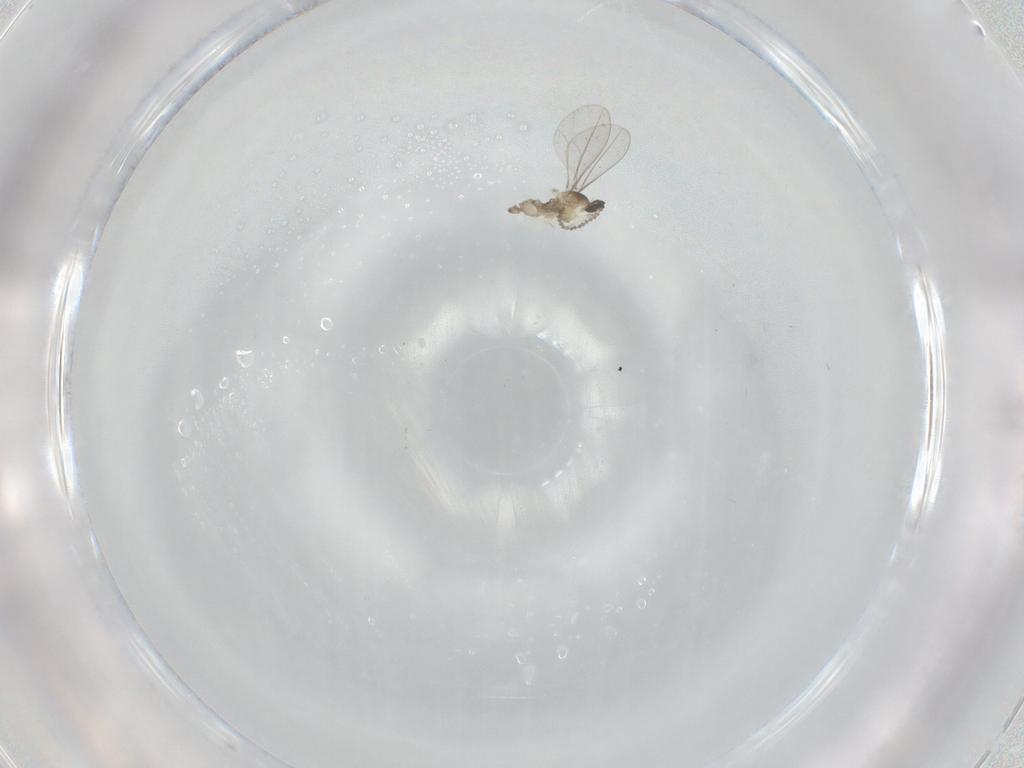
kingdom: Animalia
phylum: Arthropoda
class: Insecta
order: Diptera
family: Cecidomyiidae
